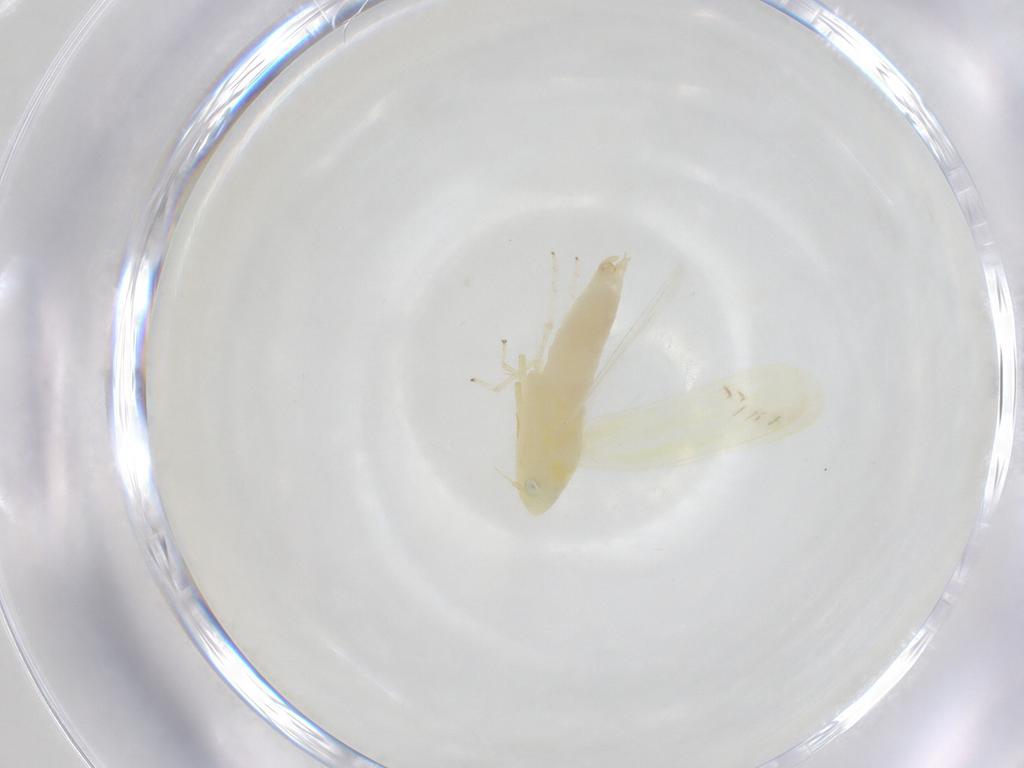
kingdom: Animalia
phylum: Arthropoda
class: Insecta
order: Hemiptera
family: Cicadellidae
